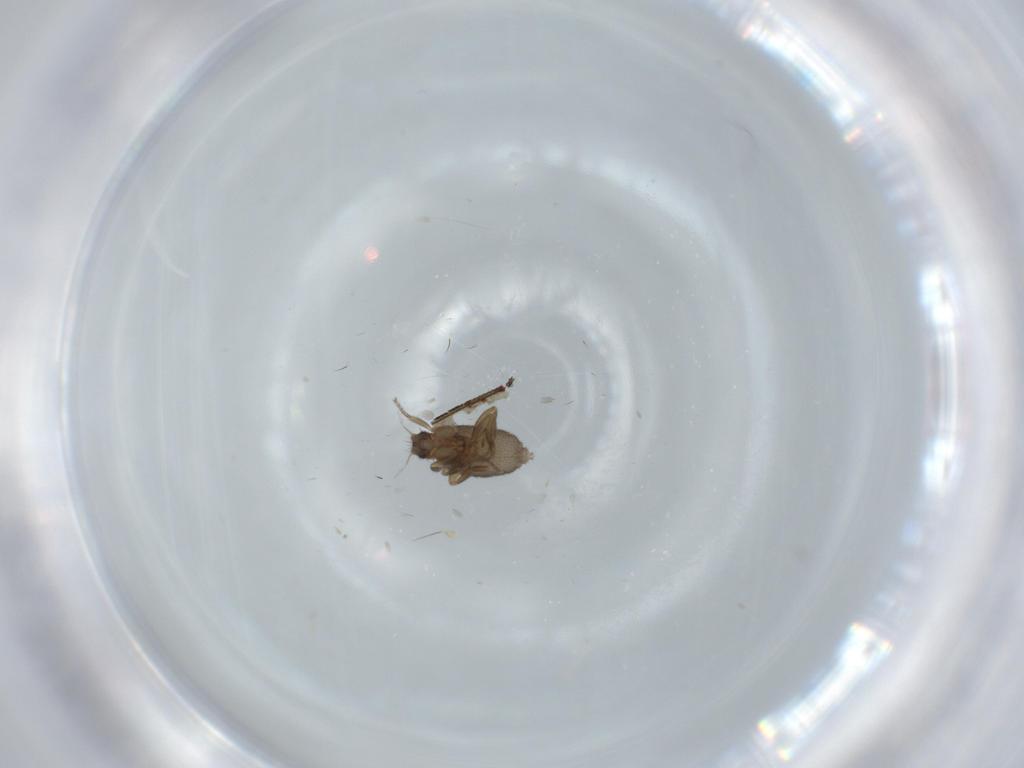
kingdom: Animalia
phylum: Arthropoda
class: Insecta
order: Diptera
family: Phoridae
